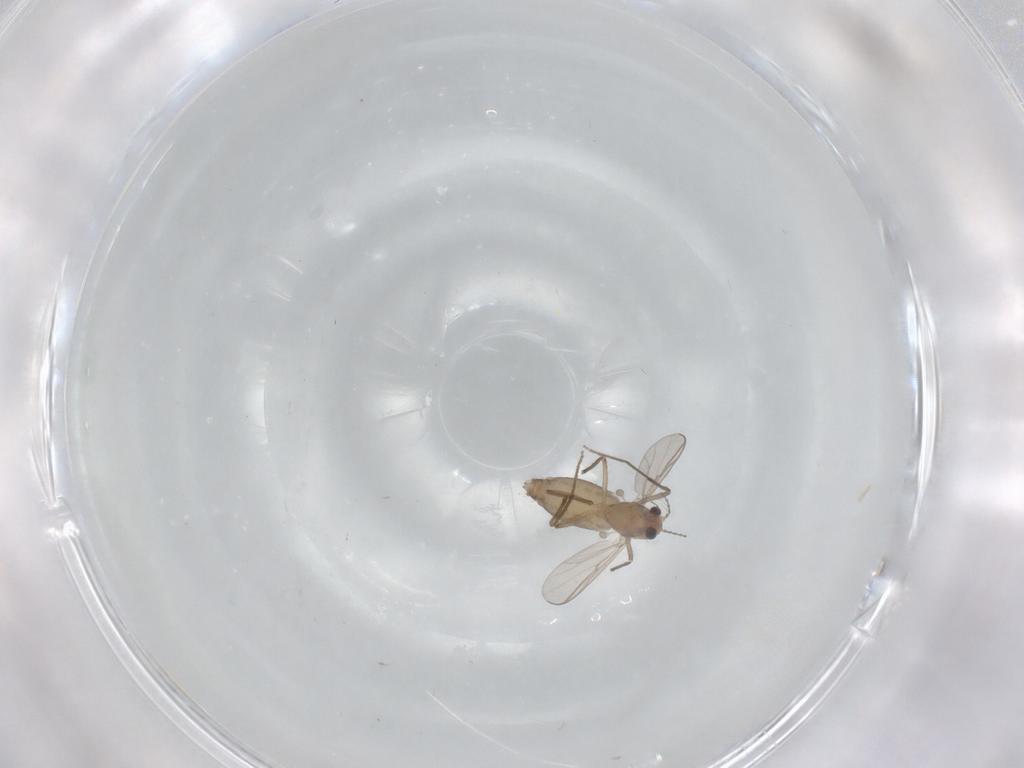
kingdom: Animalia
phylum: Arthropoda
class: Insecta
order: Diptera
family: Chironomidae
